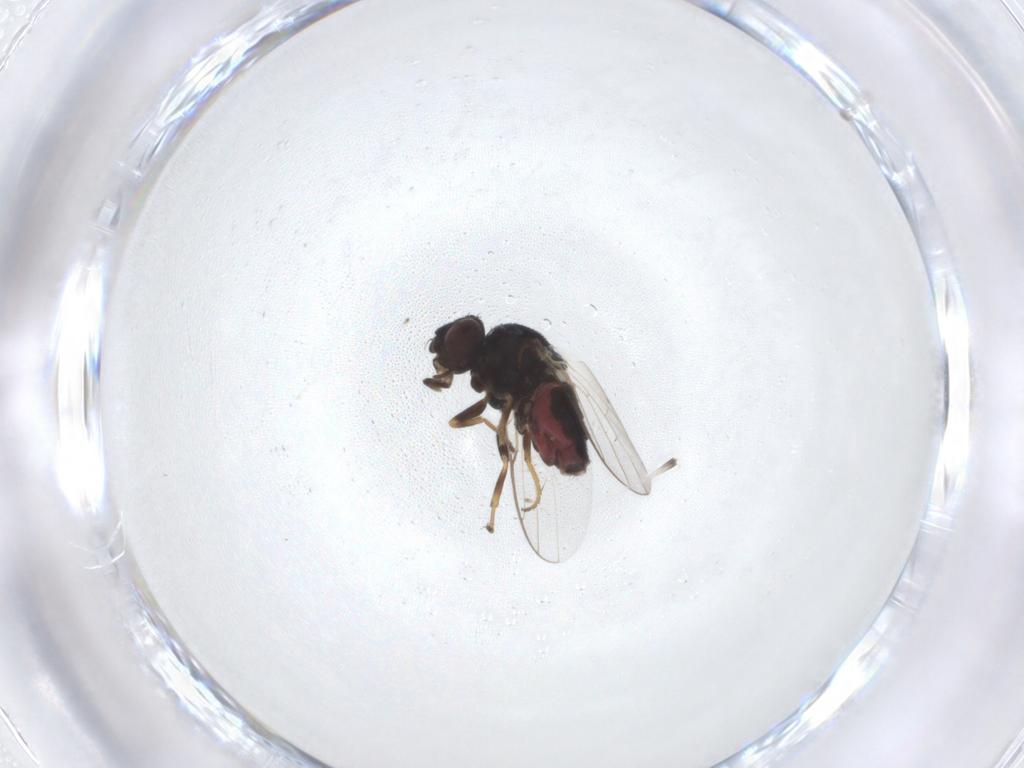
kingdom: Animalia
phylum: Arthropoda
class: Insecta
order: Diptera
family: Chloropidae
